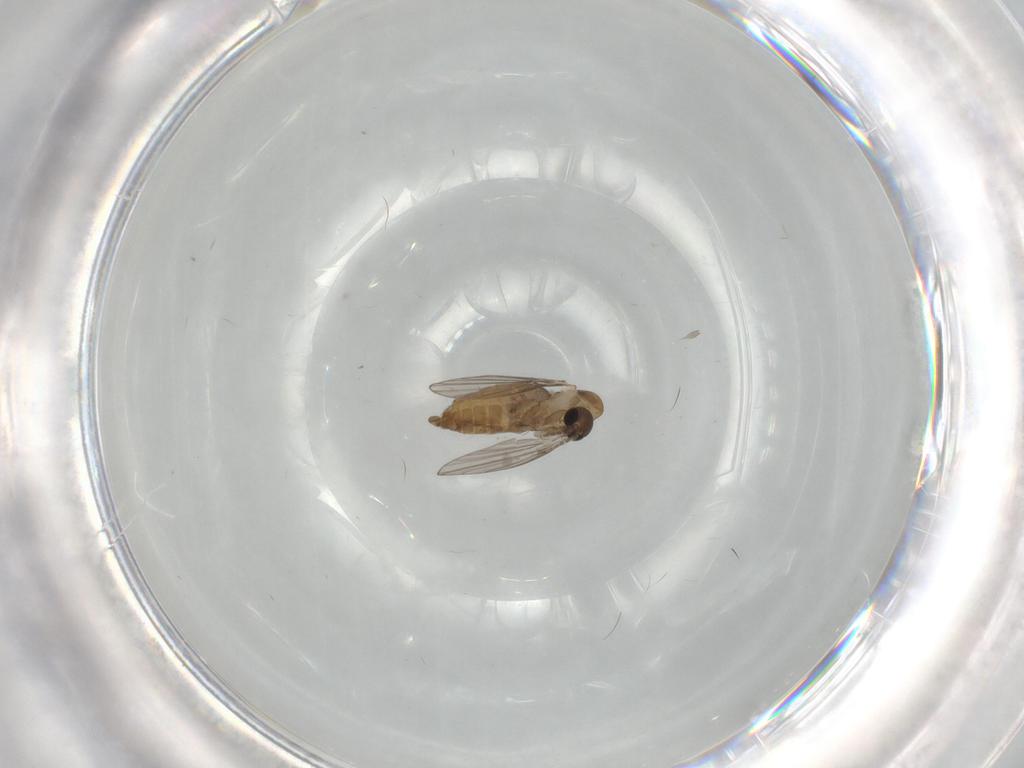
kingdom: Animalia
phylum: Arthropoda
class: Insecta
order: Diptera
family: Psychodidae
